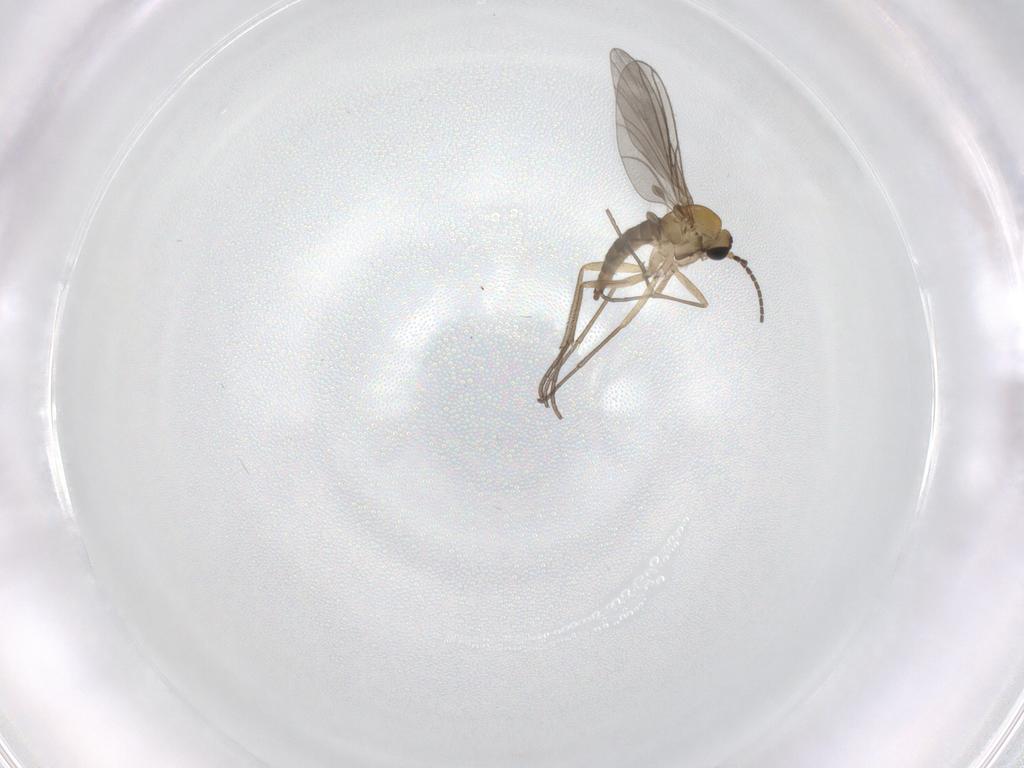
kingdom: Animalia
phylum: Arthropoda
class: Insecta
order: Diptera
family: Sciaridae
